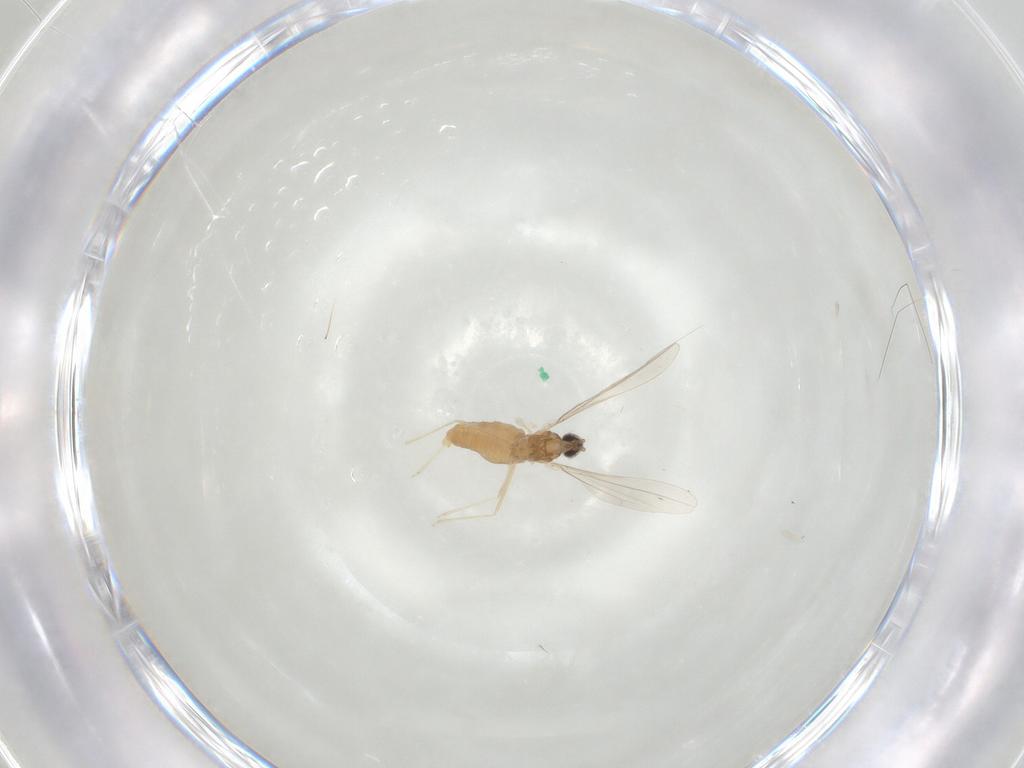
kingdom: Animalia
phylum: Arthropoda
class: Insecta
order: Diptera
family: Cecidomyiidae
